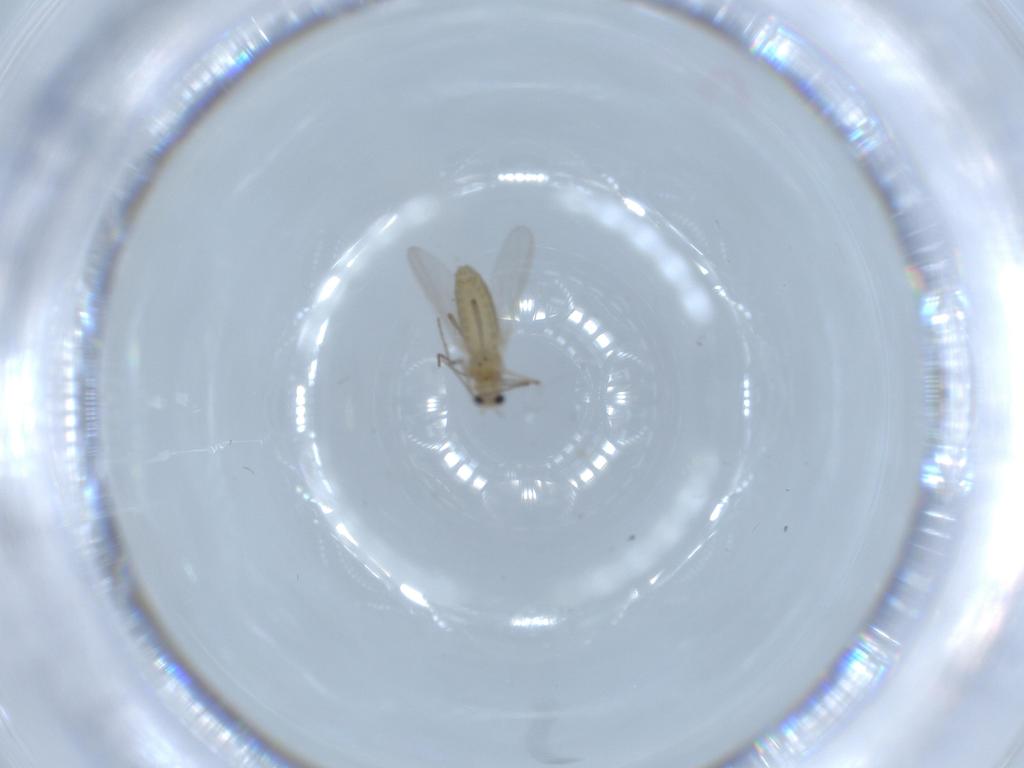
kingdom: Animalia
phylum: Arthropoda
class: Insecta
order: Diptera
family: Chironomidae
